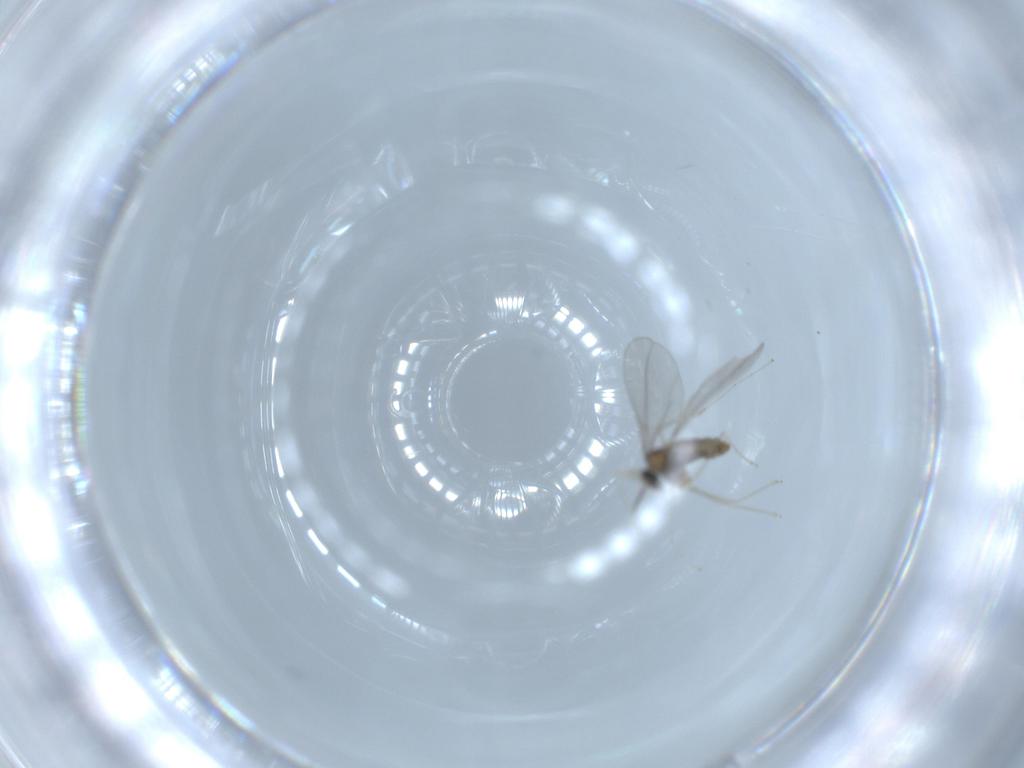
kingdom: Animalia
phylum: Arthropoda
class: Insecta
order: Diptera
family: Cecidomyiidae
